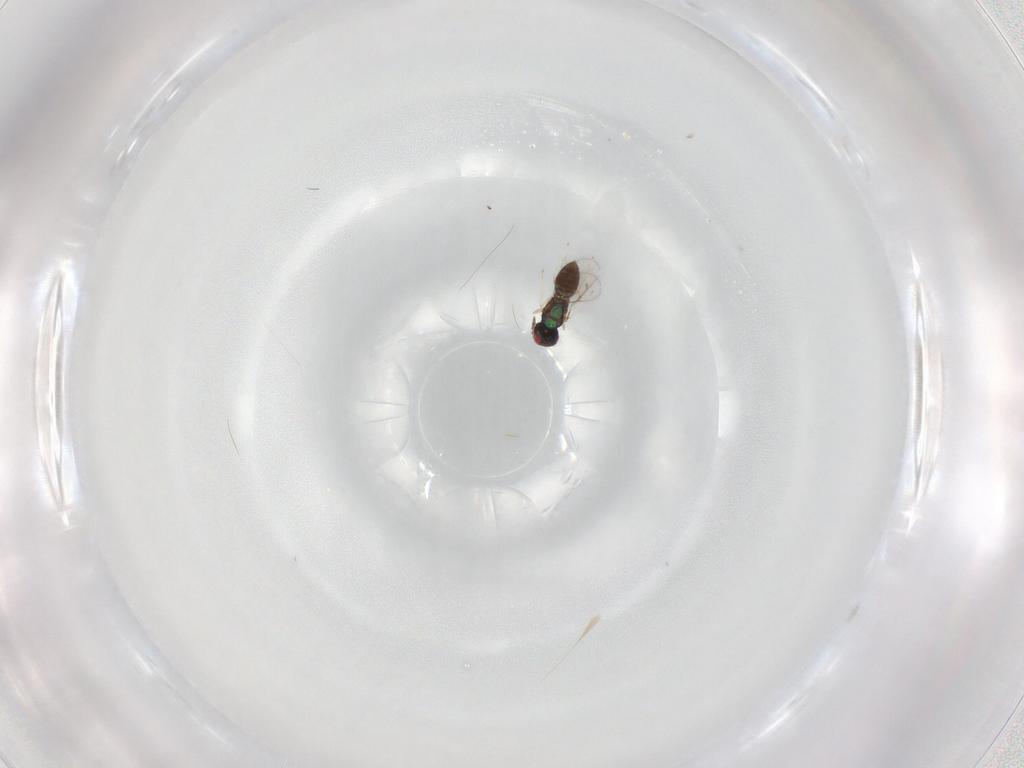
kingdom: Animalia
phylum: Arthropoda
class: Insecta
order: Hymenoptera
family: Eulophidae
